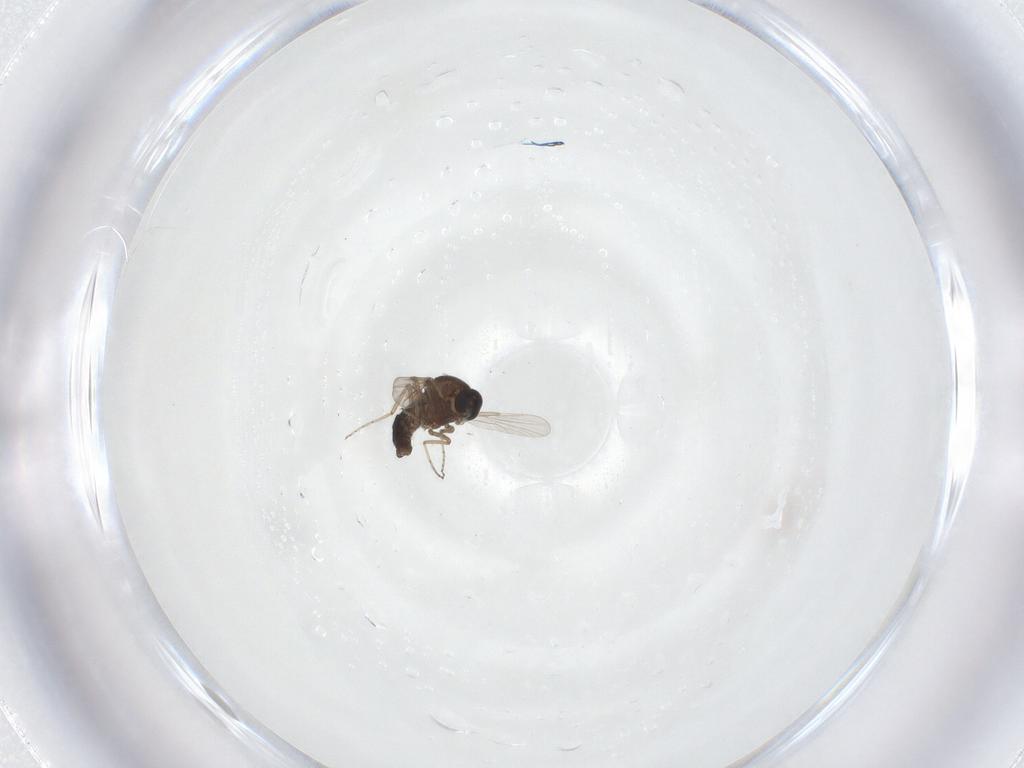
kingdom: Animalia
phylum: Arthropoda
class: Insecta
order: Diptera
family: Ceratopogonidae
